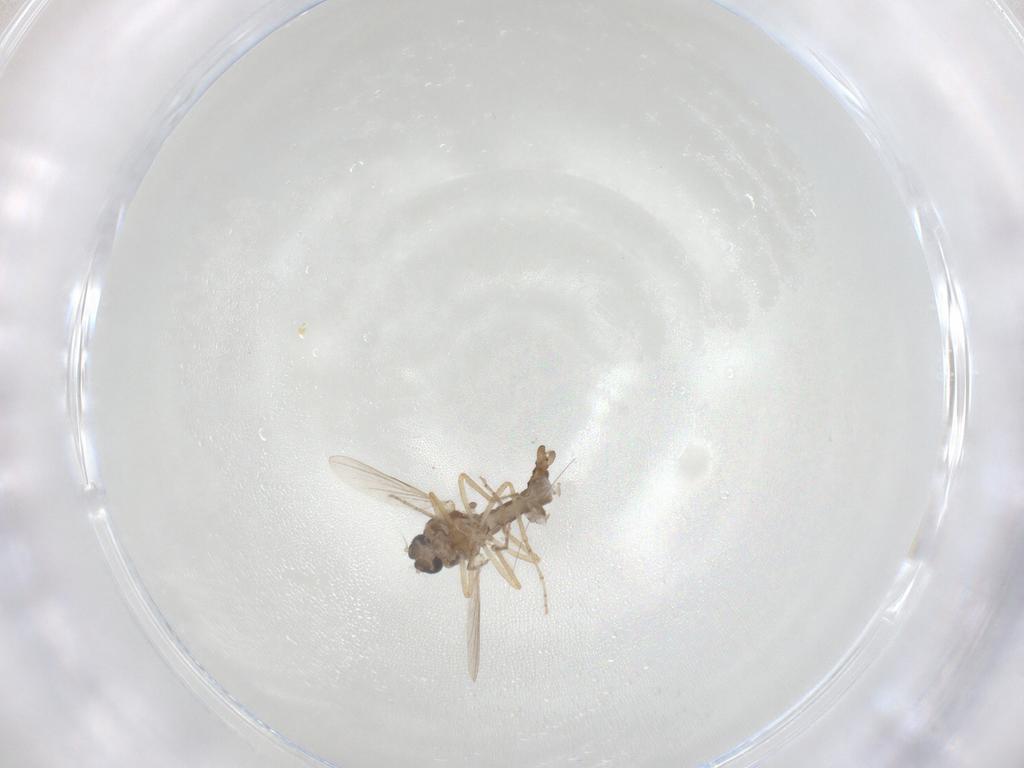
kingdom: Animalia
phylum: Arthropoda
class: Insecta
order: Diptera
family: Ceratopogonidae
